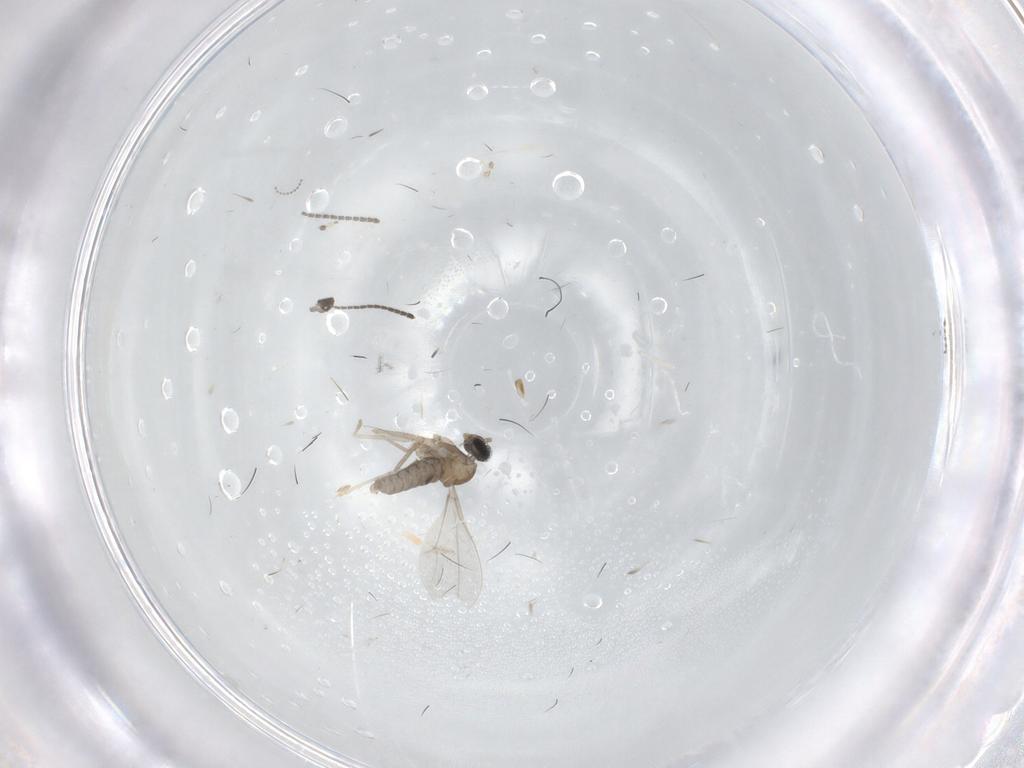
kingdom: Animalia
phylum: Arthropoda
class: Insecta
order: Diptera
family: Cecidomyiidae
